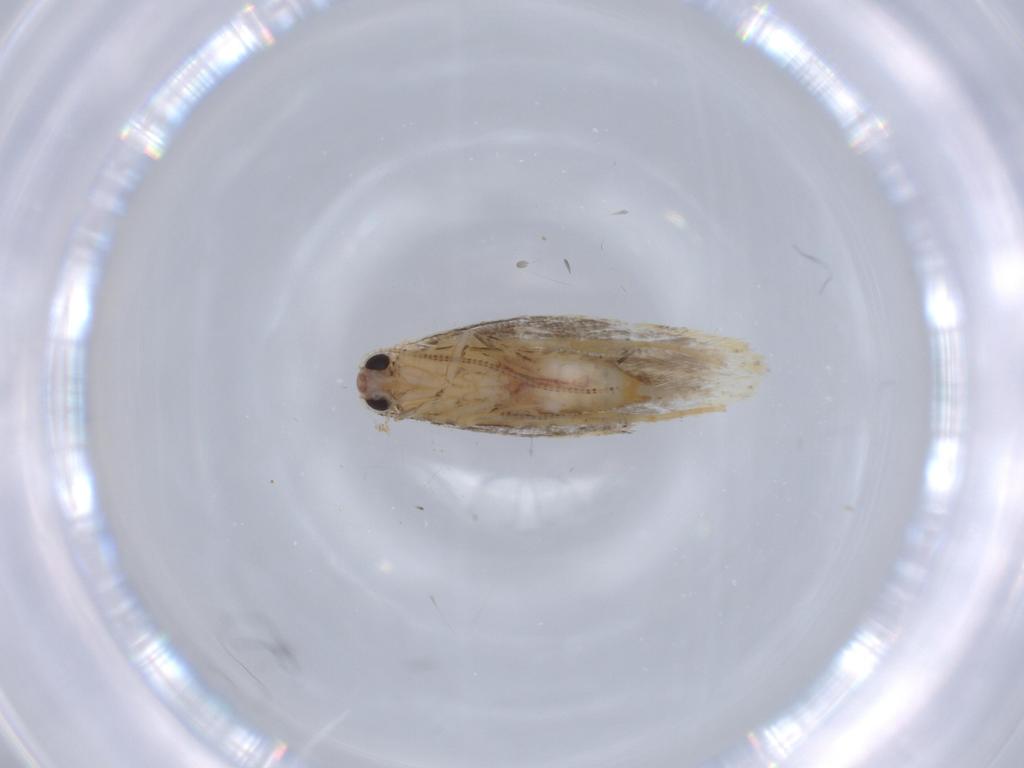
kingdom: Animalia
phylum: Arthropoda
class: Insecta
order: Lepidoptera
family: Tineidae
